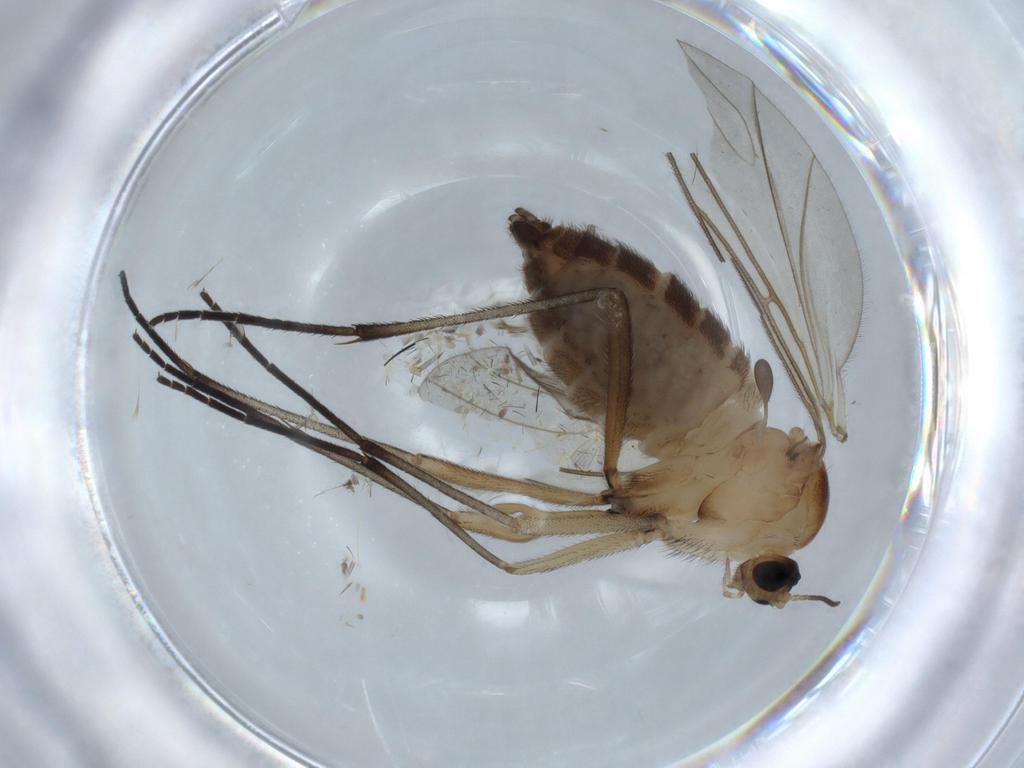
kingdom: Animalia
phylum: Arthropoda
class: Insecta
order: Diptera
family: Sciaridae
